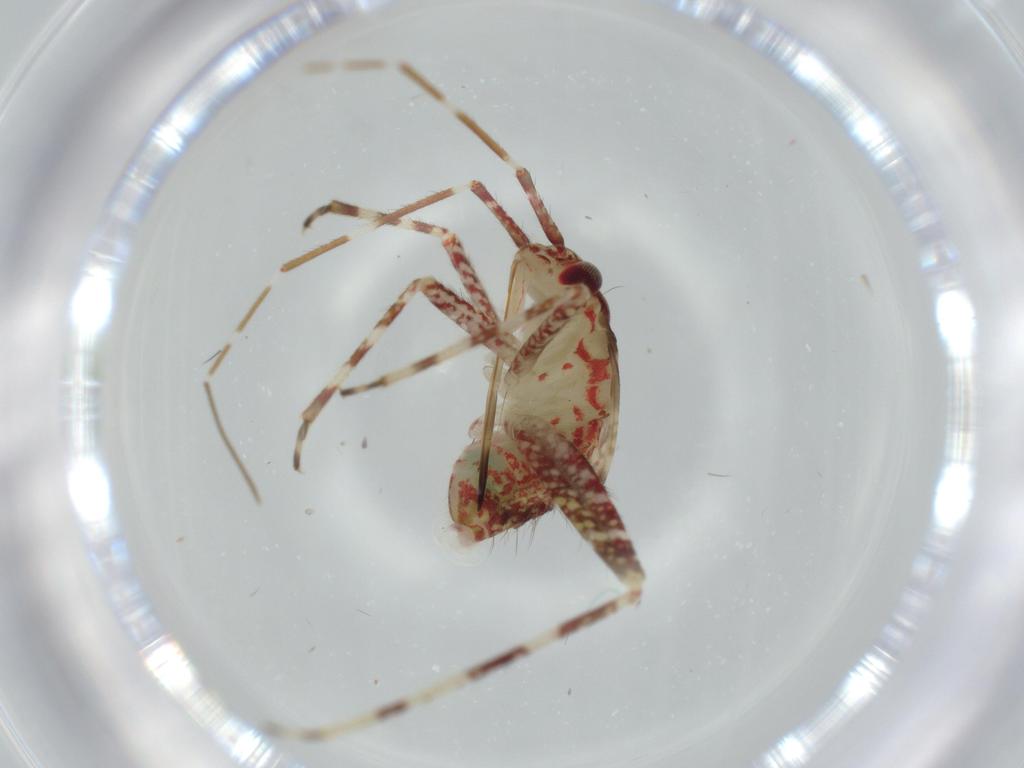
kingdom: Animalia
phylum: Arthropoda
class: Insecta
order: Hemiptera
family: Miridae
